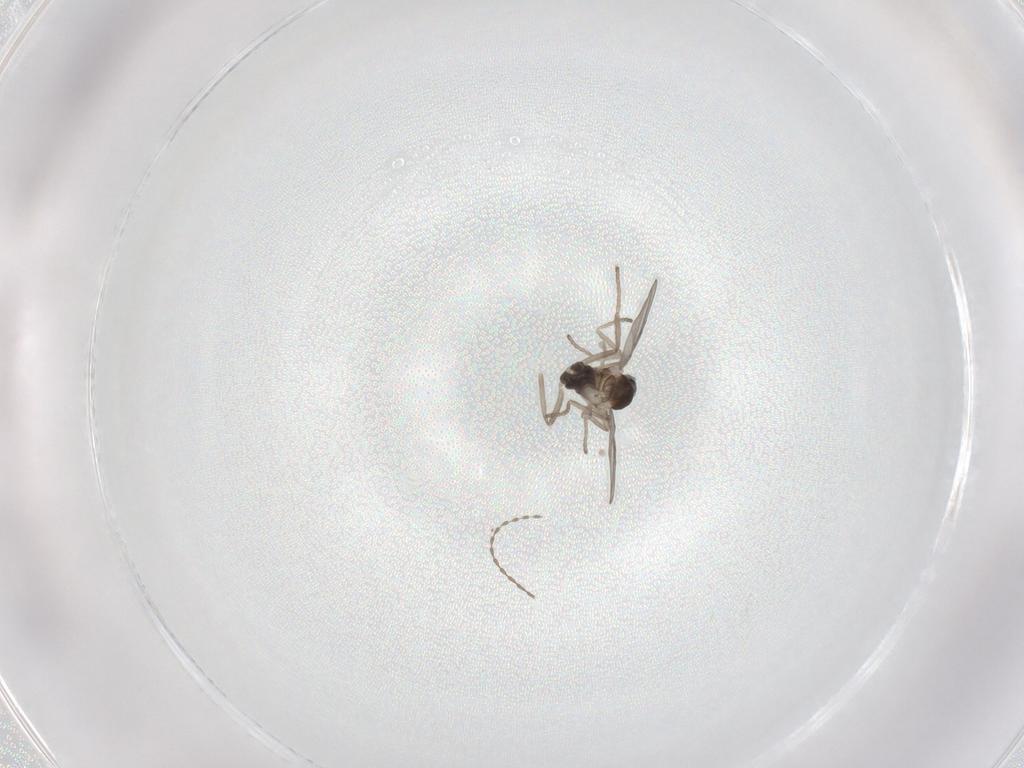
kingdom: Animalia
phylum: Arthropoda
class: Insecta
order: Diptera
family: Cecidomyiidae
